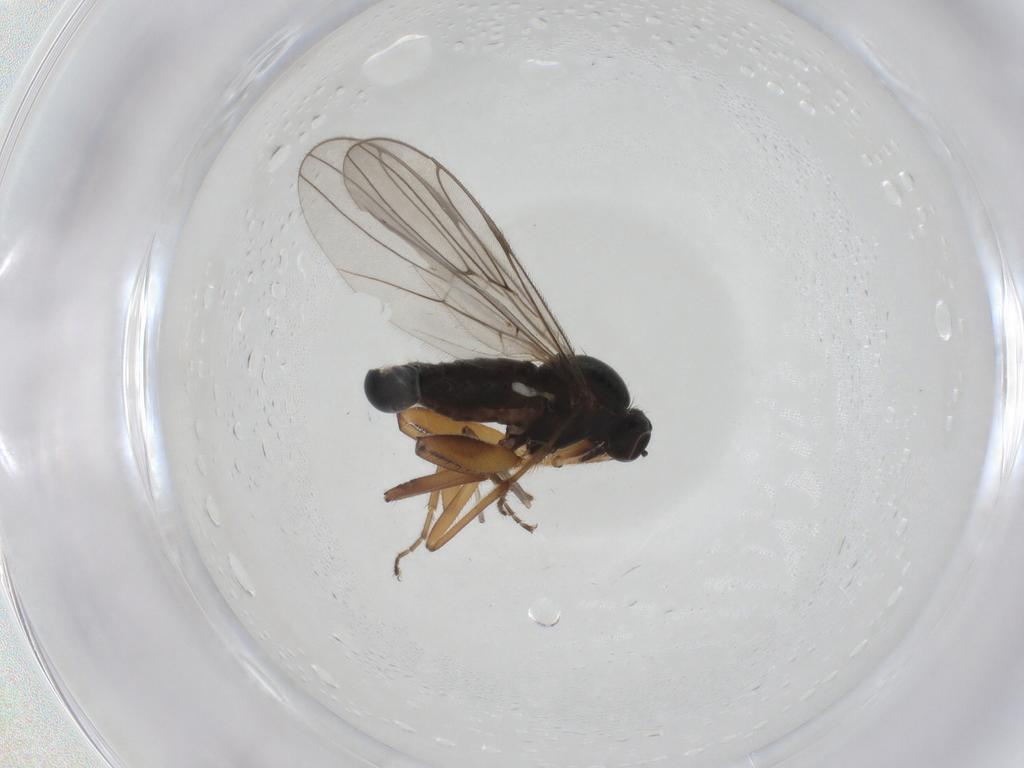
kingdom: Animalia
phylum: Arthropoda
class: Insecta
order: Diptera
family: Hybotidae
